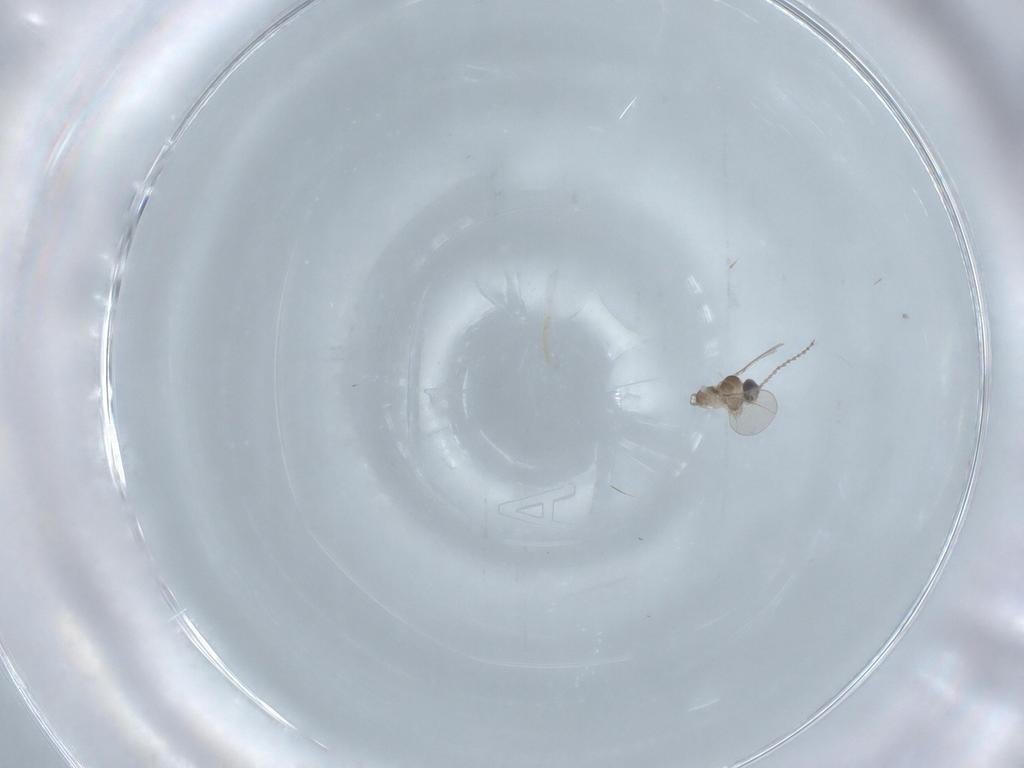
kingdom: Animalia
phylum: Arthropoda
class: Insecta
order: Diptera
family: Cecidomyiidae
